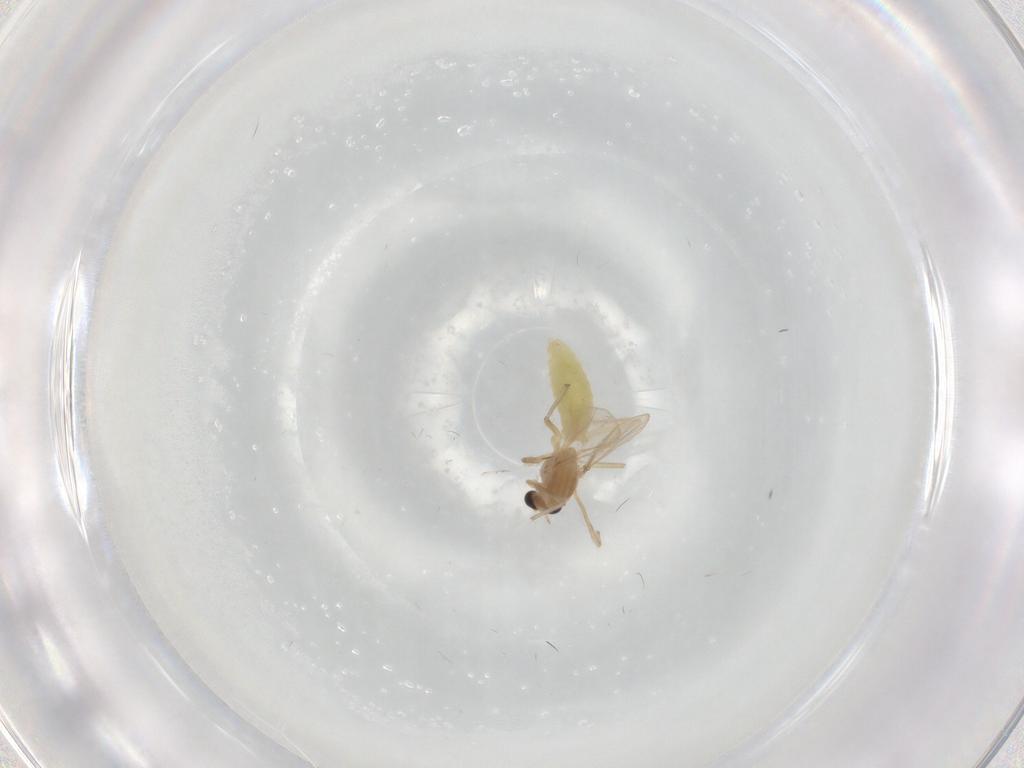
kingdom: Animalia
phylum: Arthropoda
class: Insecta
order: Diptera
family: Chironomidae
